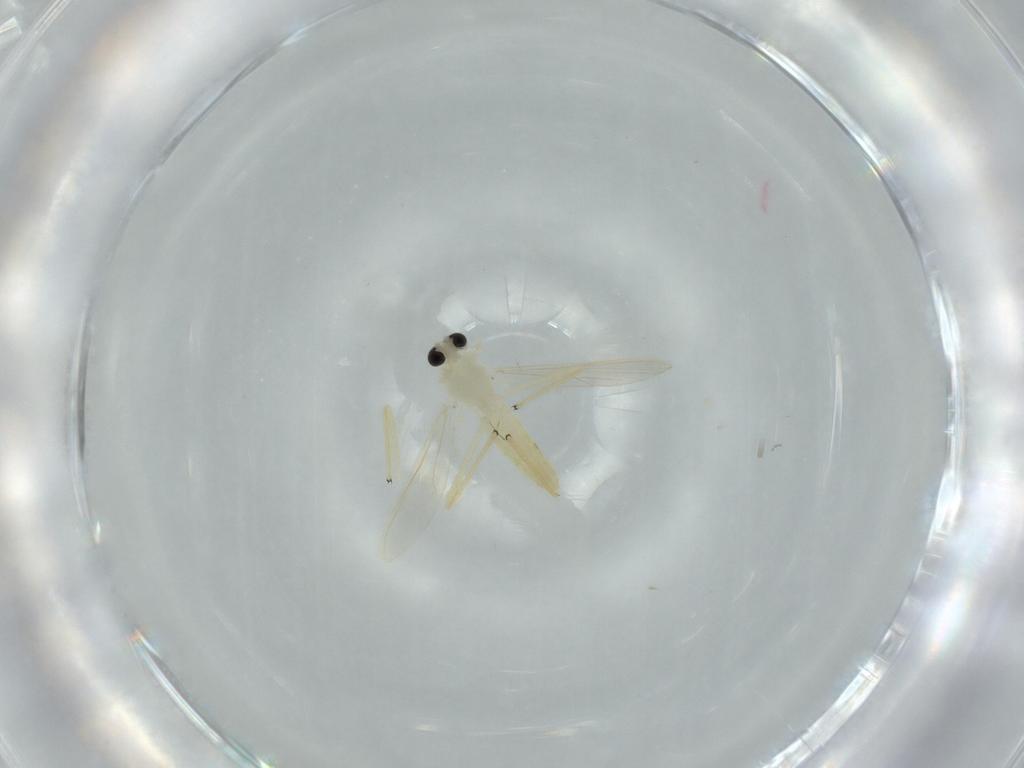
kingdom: Animalia
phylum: Arthropoda
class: Insecta
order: Diptera
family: Chironomidae
